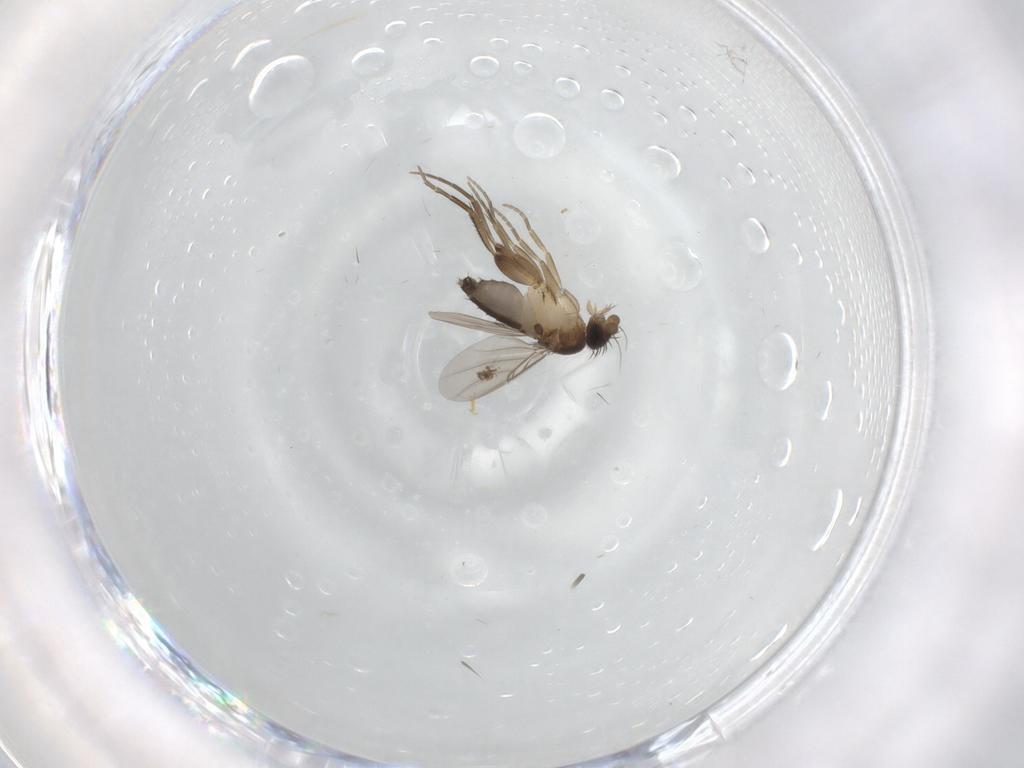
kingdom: Animalia
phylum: Arthropoda
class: Insecta
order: Diptera
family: Phoridae
